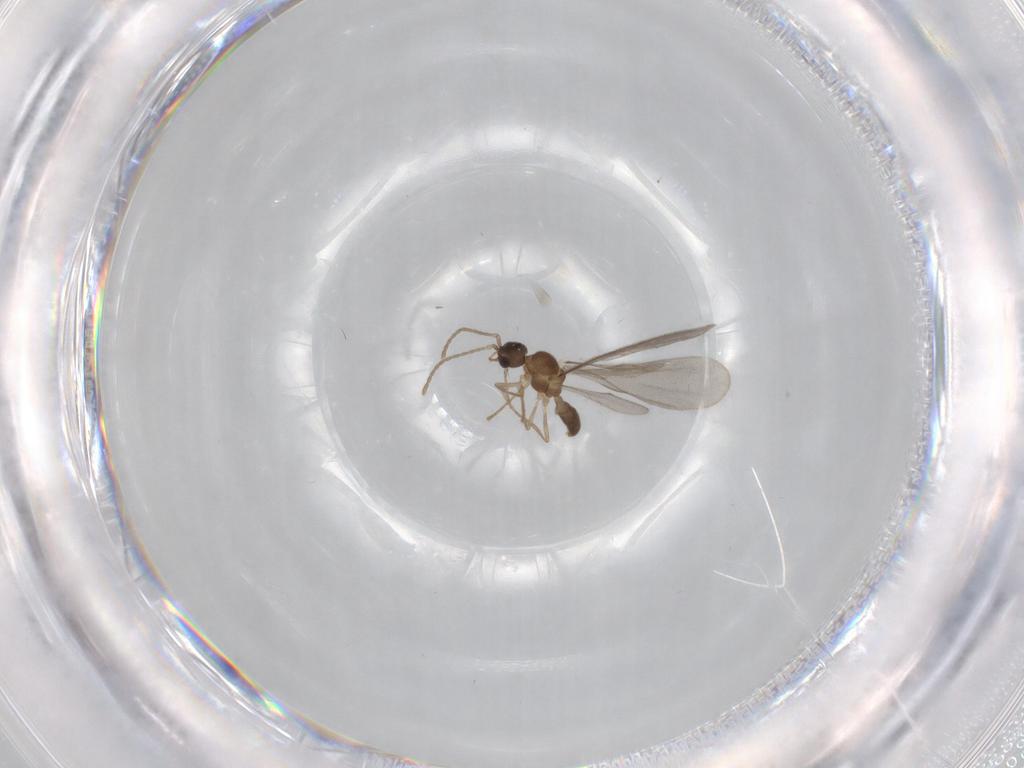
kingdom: Animalia
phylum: Arthropoda
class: Insecta
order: Hymenoptera
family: Formicidae
